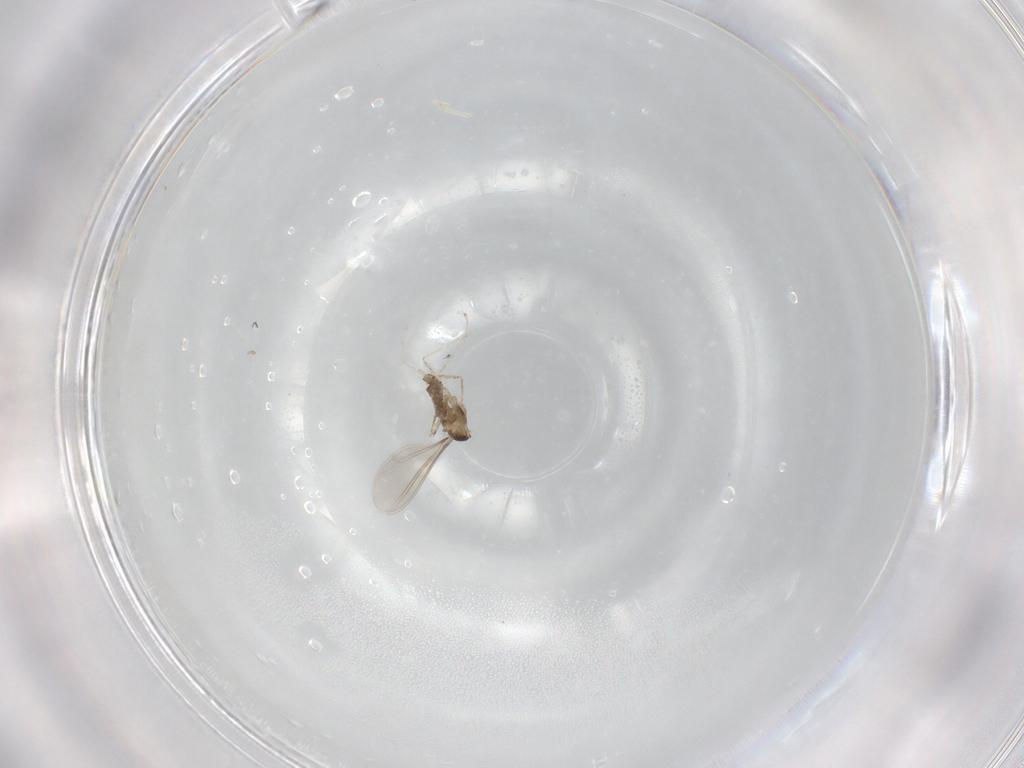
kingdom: Animalia
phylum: Arthropoda
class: Insecta
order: Diptera
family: Cecidomyiidae
